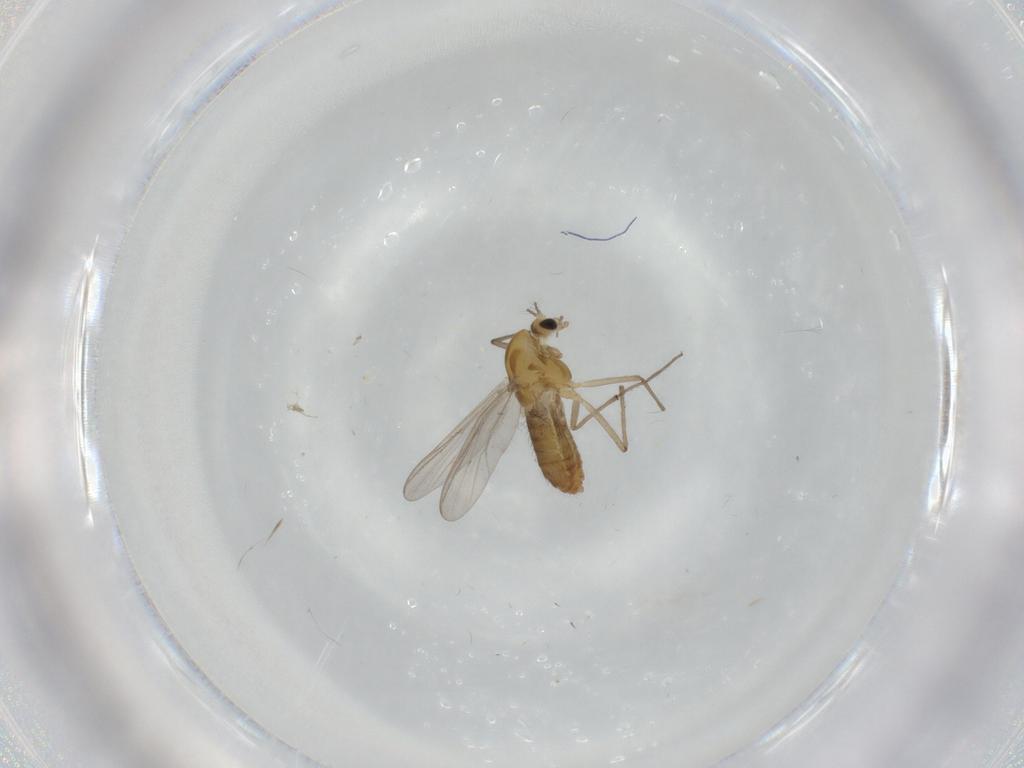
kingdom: Animalia
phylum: Arthropoda
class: Insecta
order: Diptera
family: Chironomidae
